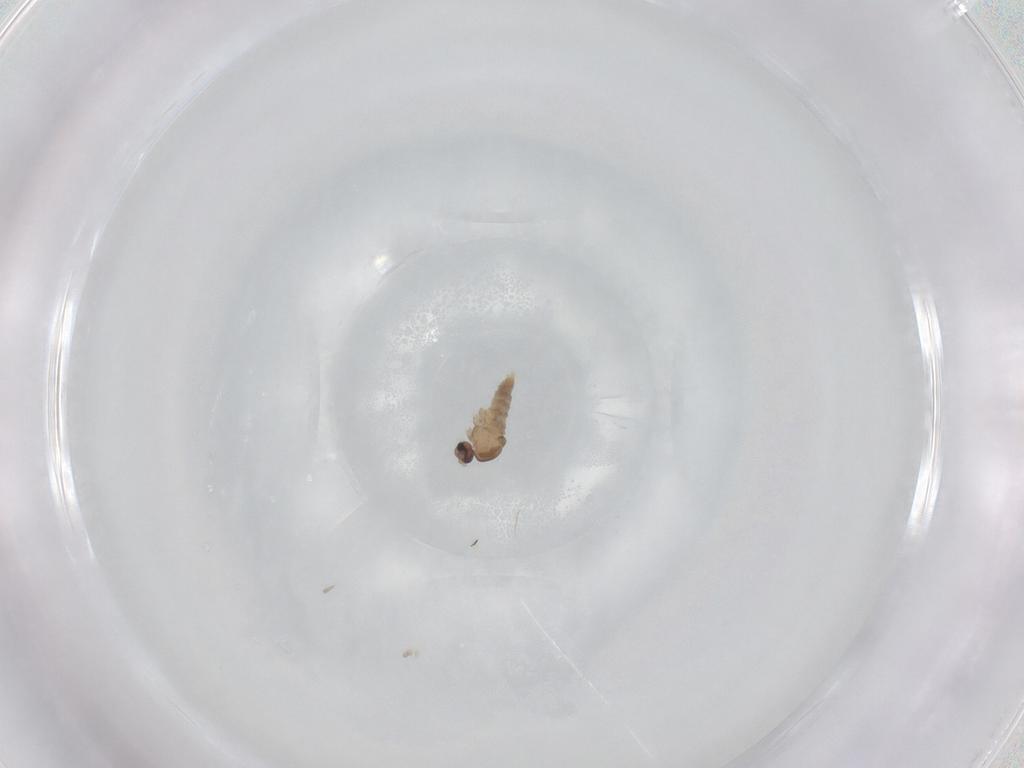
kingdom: Animalia
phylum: Arthropoda
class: Insecta
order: Diptera
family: Culicidae
